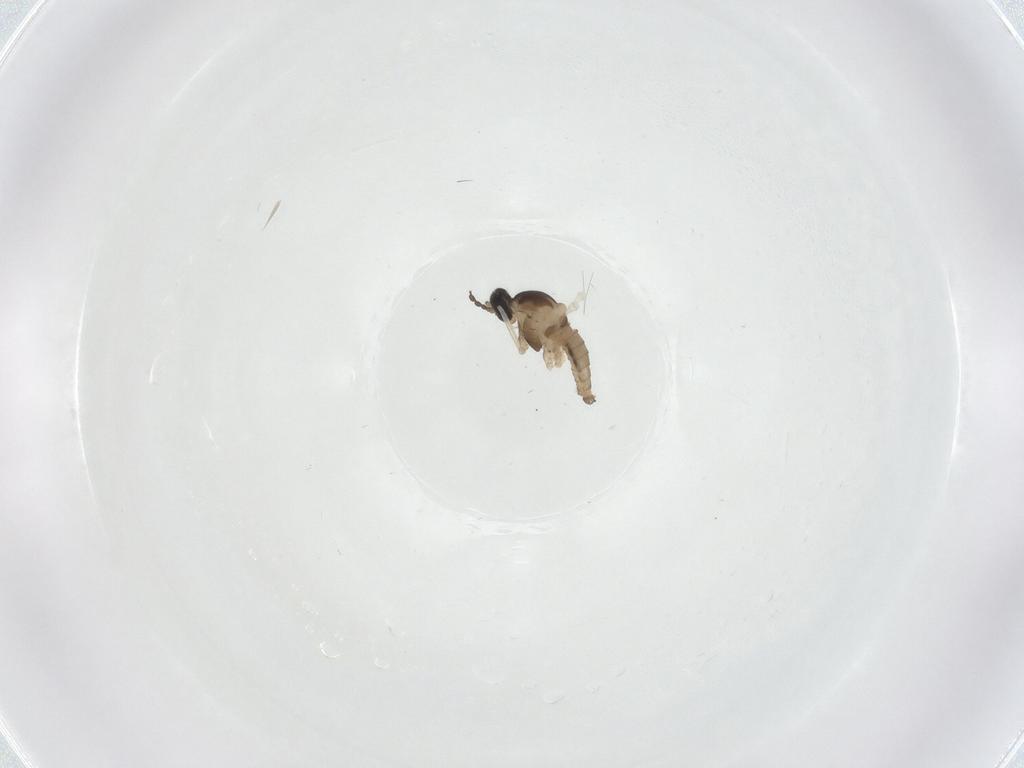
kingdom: Animalia
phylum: Arthropoda
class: Insecta
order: Diptera
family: Cecidomyiidae
